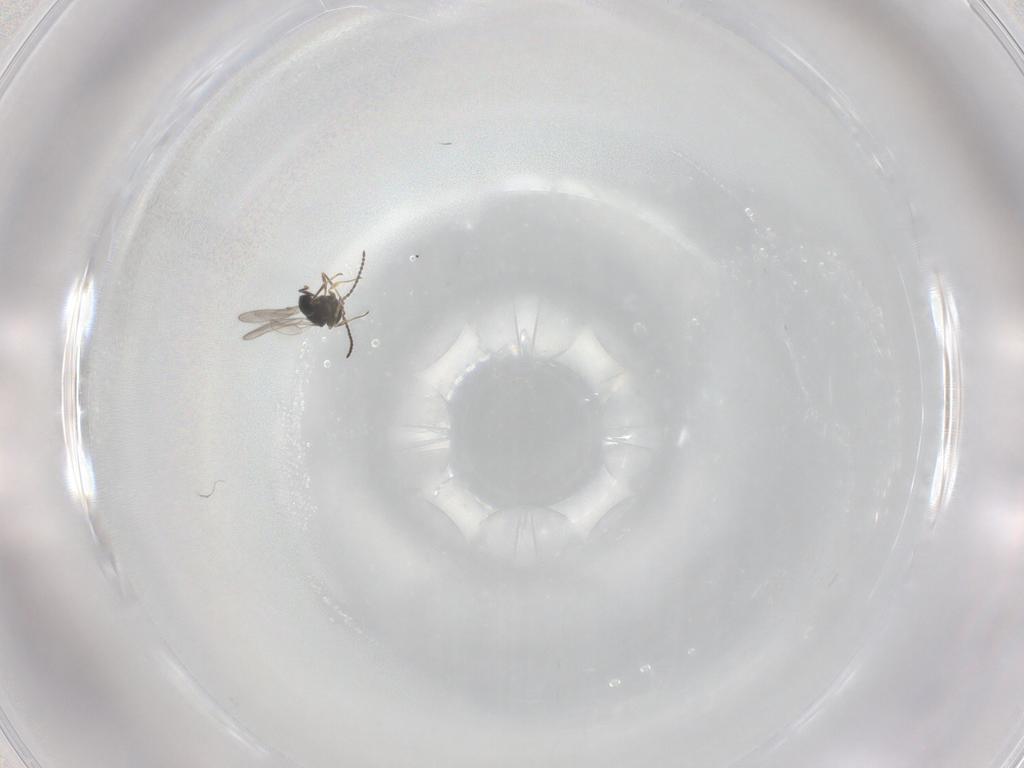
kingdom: Animalia
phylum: Arthropoda
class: Insecta
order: Hymenoptera
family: Scelionidae
